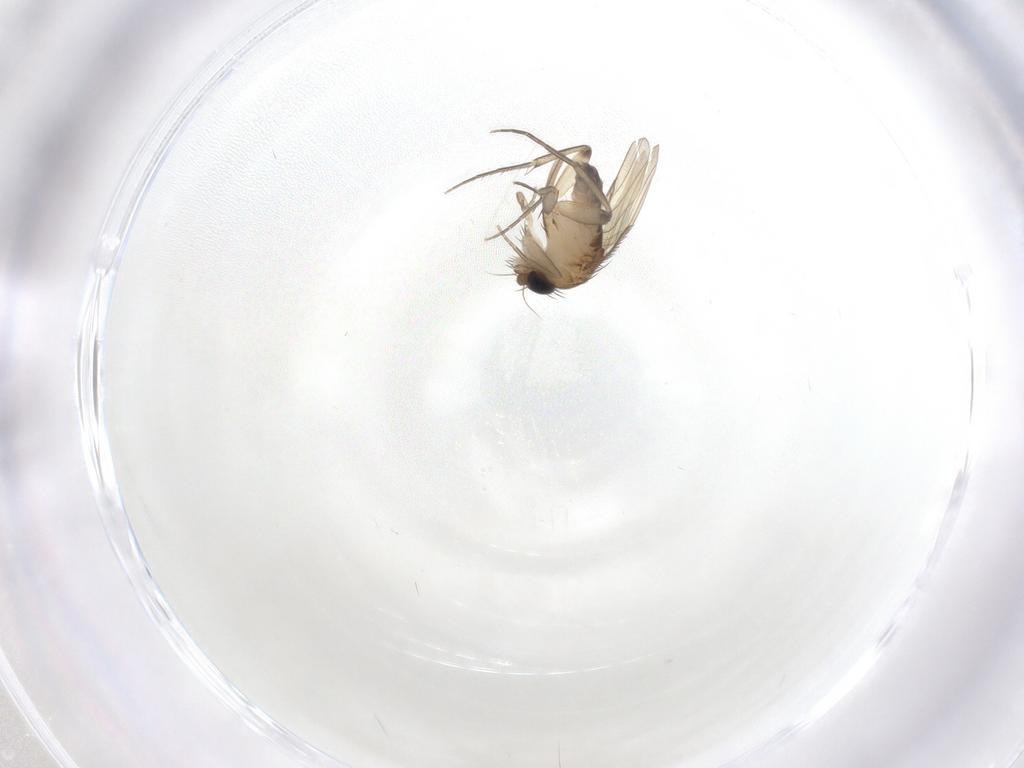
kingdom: Animalia
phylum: Arthropoda
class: Insecta
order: Diptera
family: Phoridae
